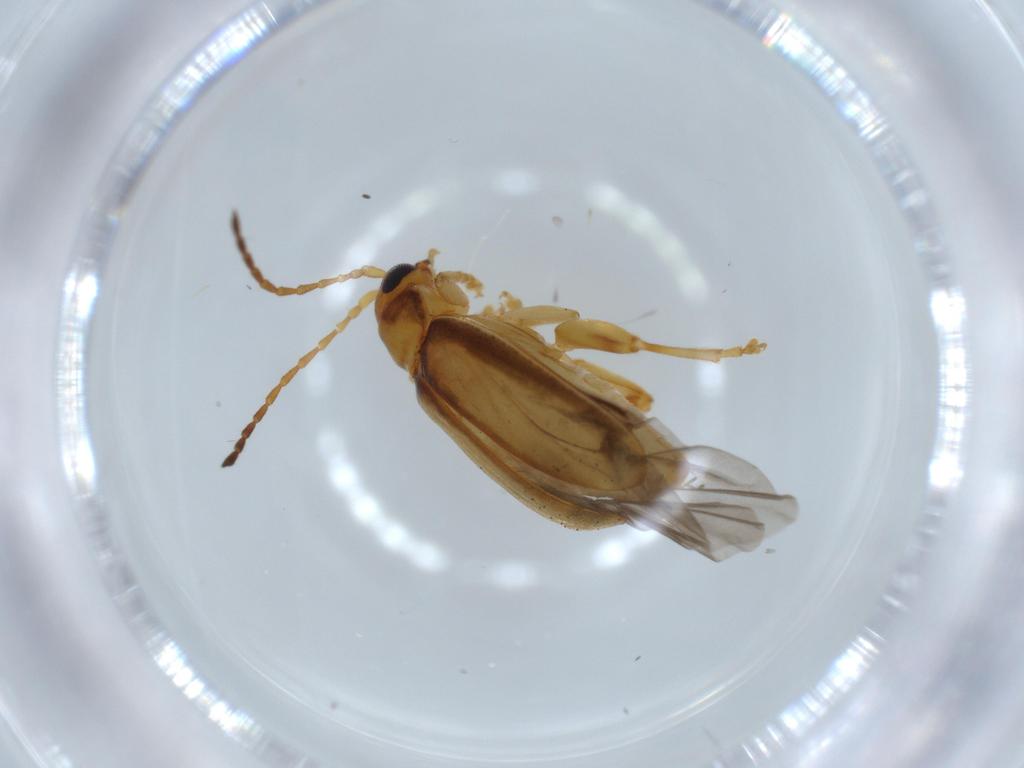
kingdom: Animalia
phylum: Arthropoda
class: Insecta
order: Coleoptera
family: Chrysomelidae
